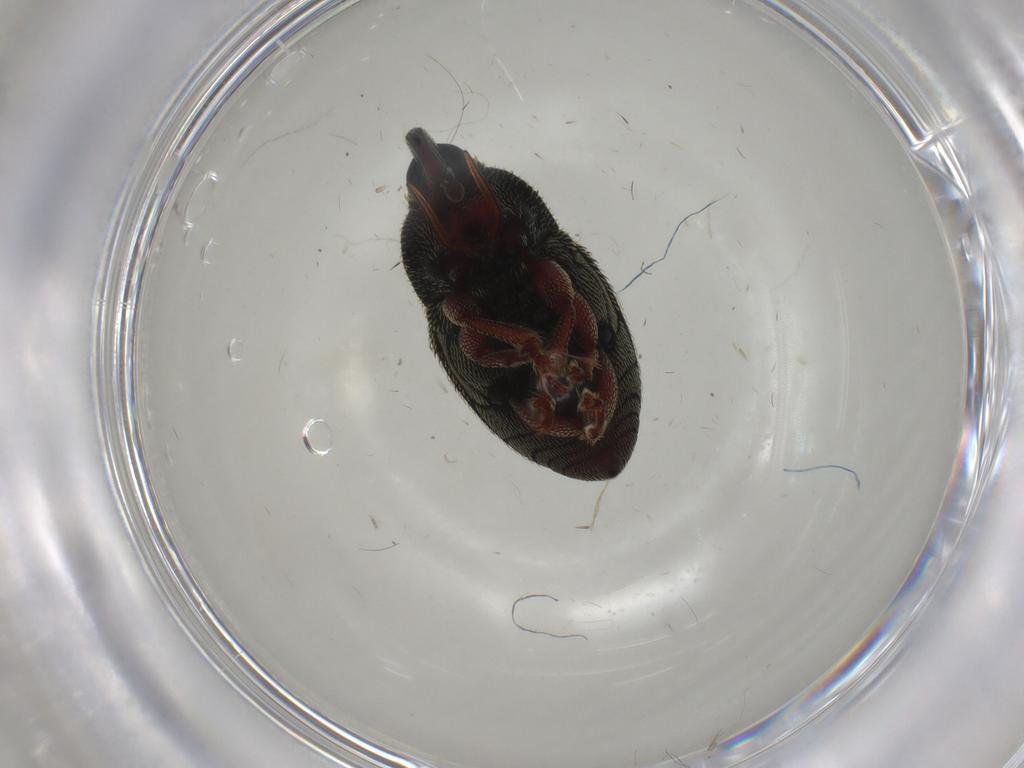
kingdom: Animalia
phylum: Arthropoda
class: Insecta
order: Coleoptera
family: Curculionidae
